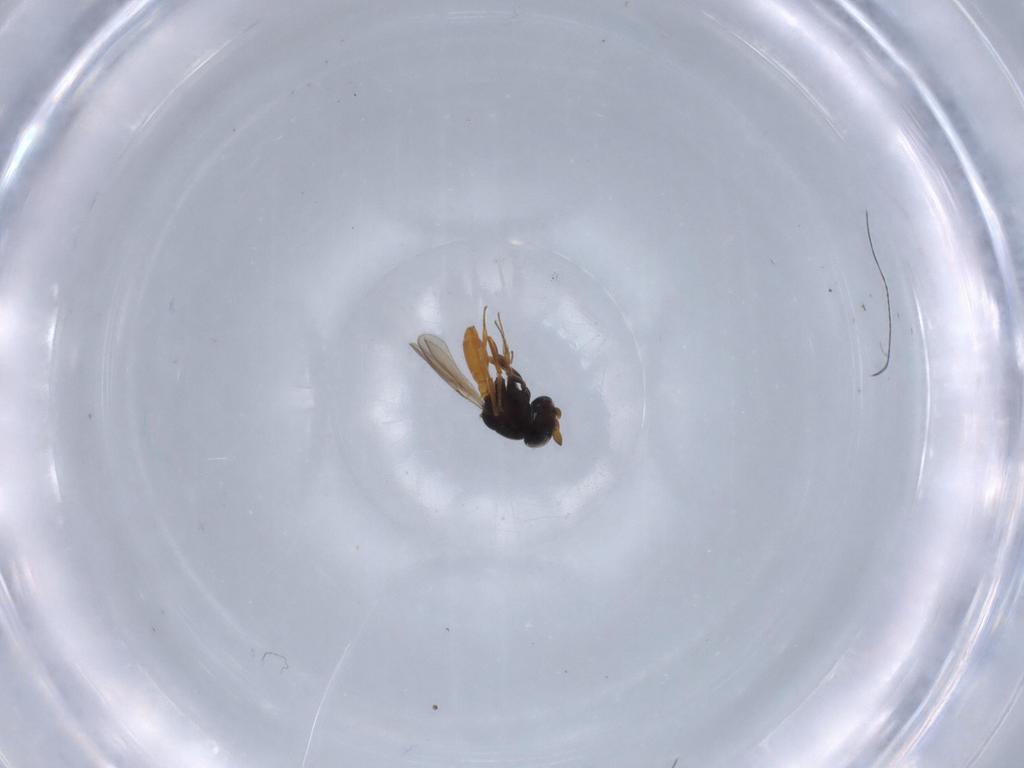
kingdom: Animalia
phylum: Arthropoda
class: Insecta
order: Hymenoptera
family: Scelionidae
